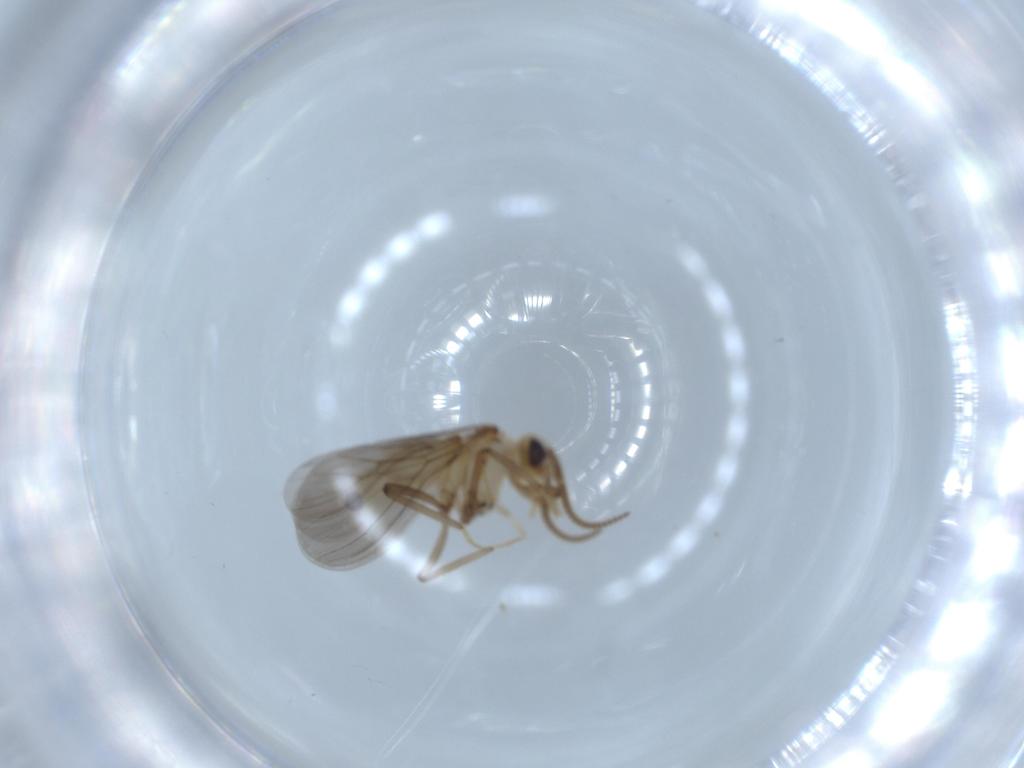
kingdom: Animalia
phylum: Arthropoda
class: Insecta
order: Neuroptera
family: Coniopterygidae
